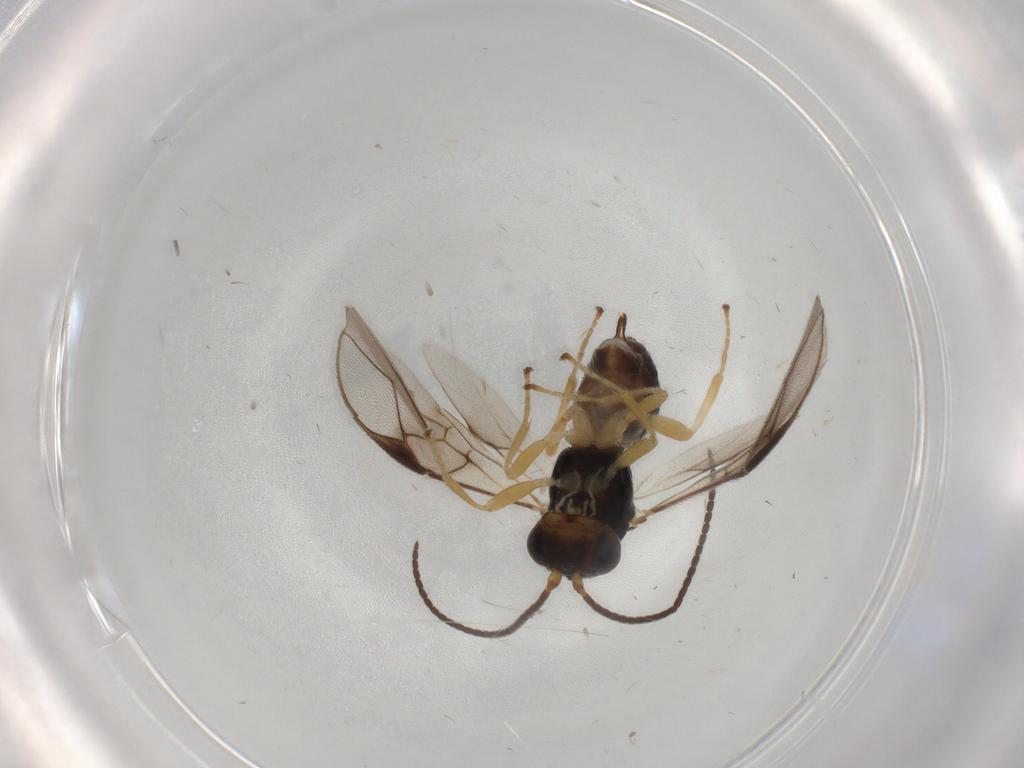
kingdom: Animalia
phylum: Arthropoda
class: Insecta
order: Hymenoptera
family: Braconidae
